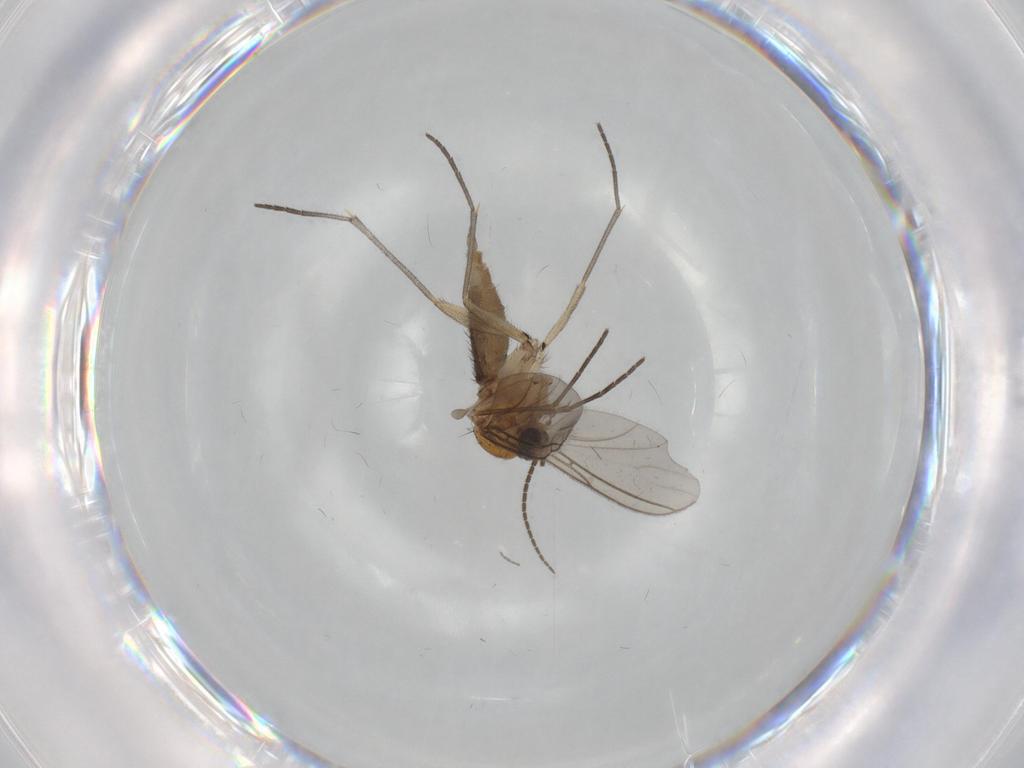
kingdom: Animalia
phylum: Arthropoda
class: Insecta
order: Diptera
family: Sciaridae
